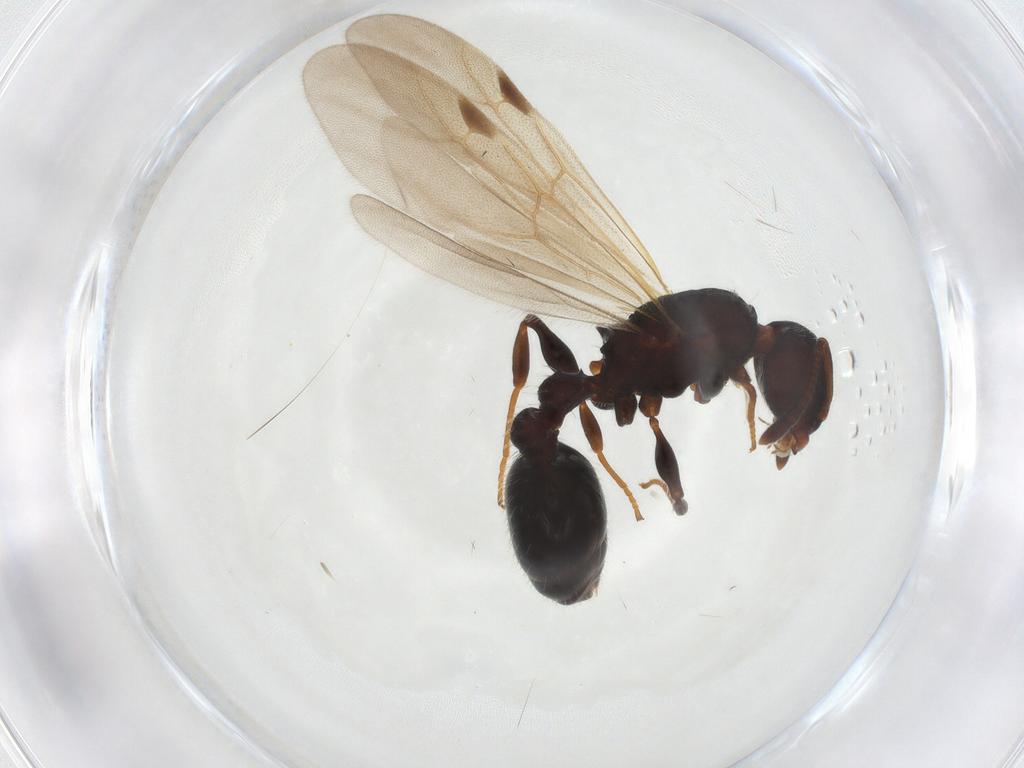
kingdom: Animalia
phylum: Arthropoda
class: Insecta
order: Hymenoptera
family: Formicidae
